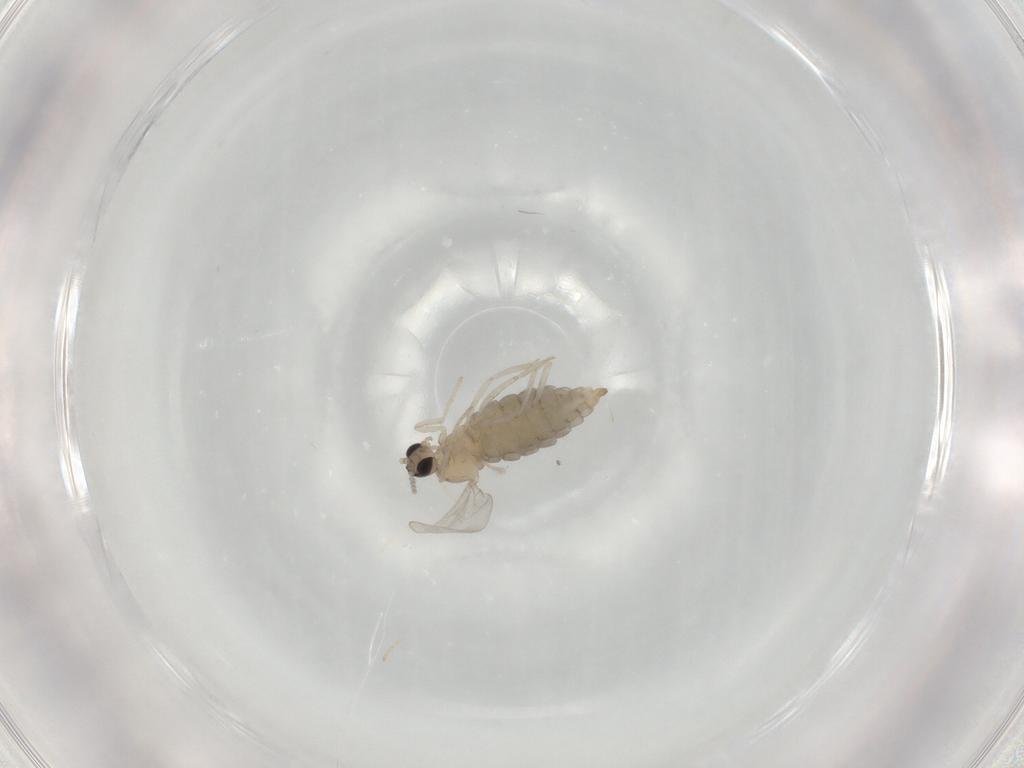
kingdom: Animalia
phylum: Arthropoda
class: Insecta
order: Diptera
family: Cecidomyiidae
